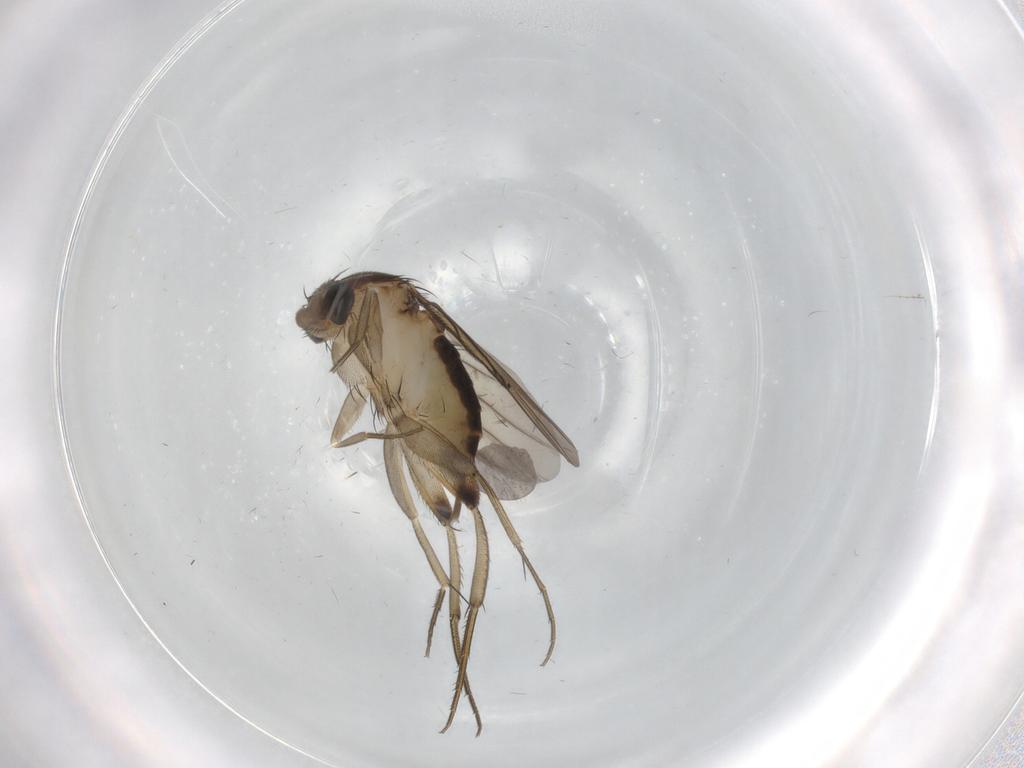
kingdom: Animalia
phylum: Arthropoda
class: Insecta
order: Diptera
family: Phoridae
